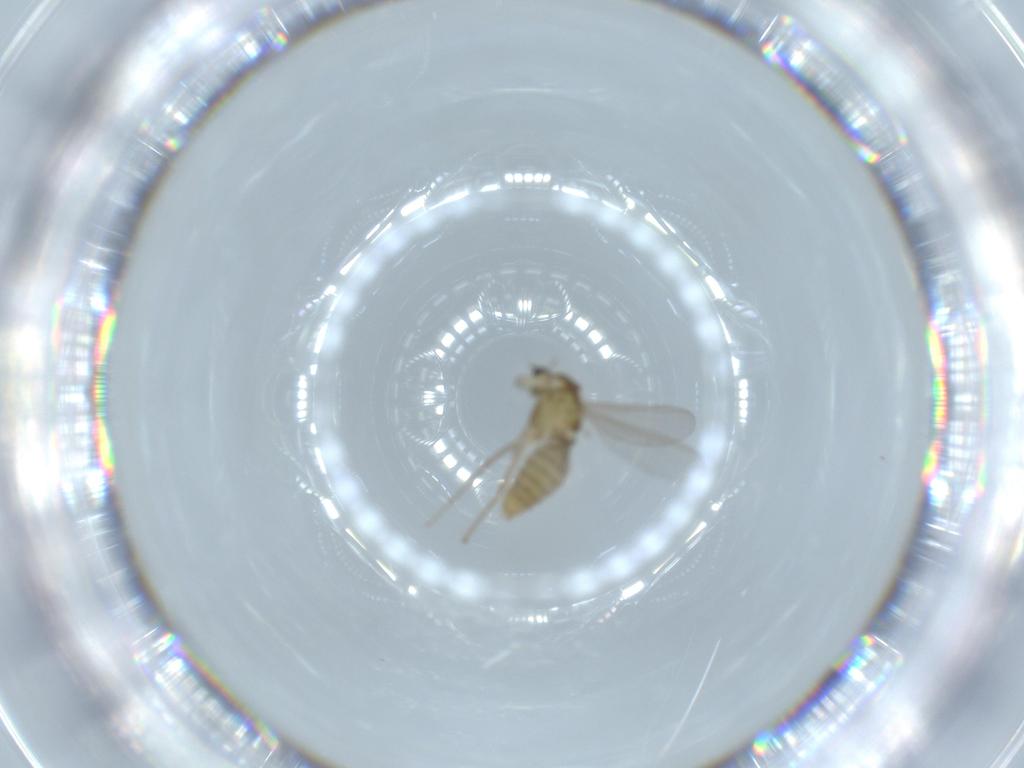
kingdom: Animalia
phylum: Arthropoda
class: Insecta
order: Diptera
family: Chironomidae
